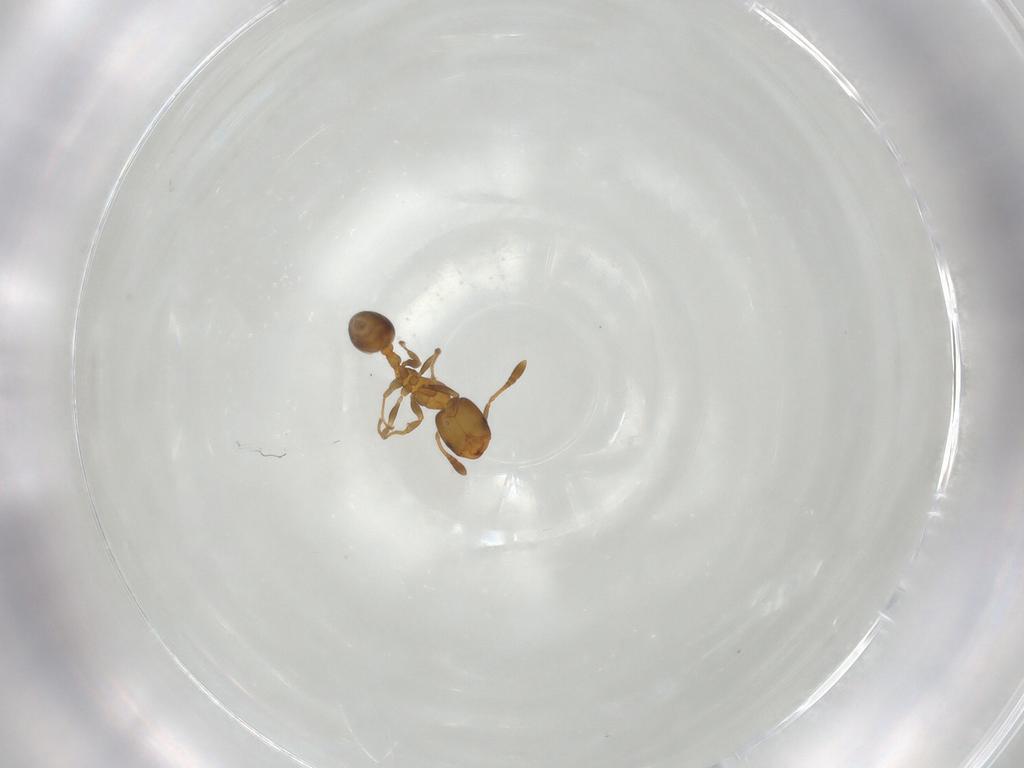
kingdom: Animalia
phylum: Arthropoda
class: Insecta
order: Hymenoptera
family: Formicidae
